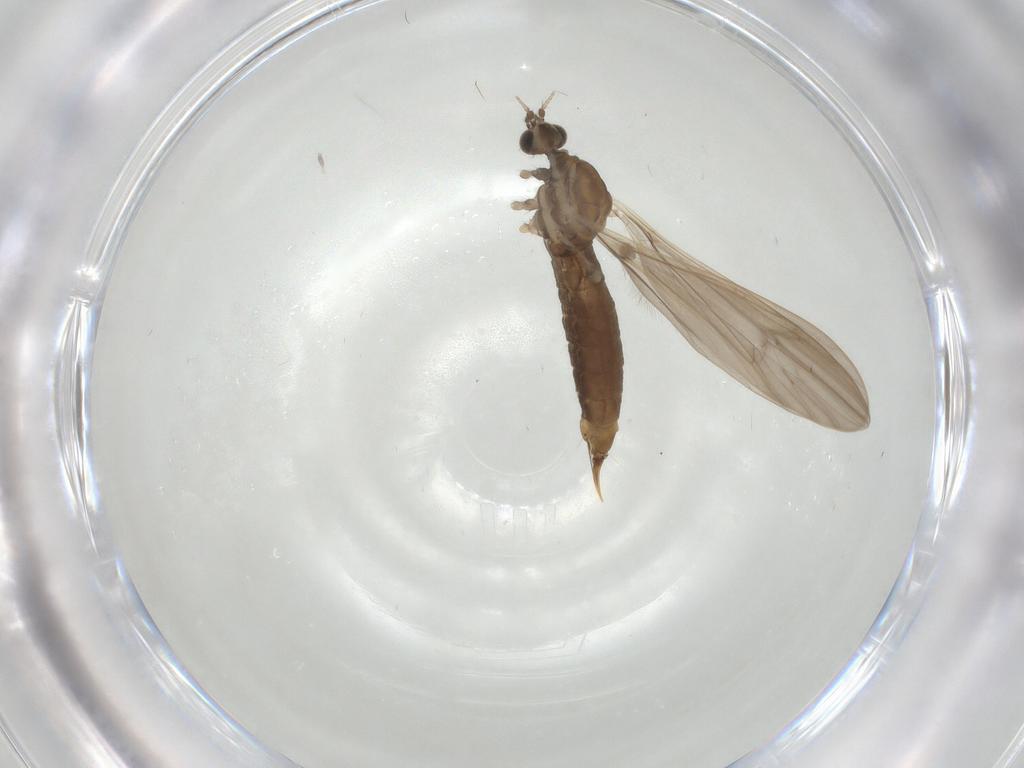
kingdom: Animalia
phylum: Arthropoda
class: Insecta
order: Diptera
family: Limoniidae
